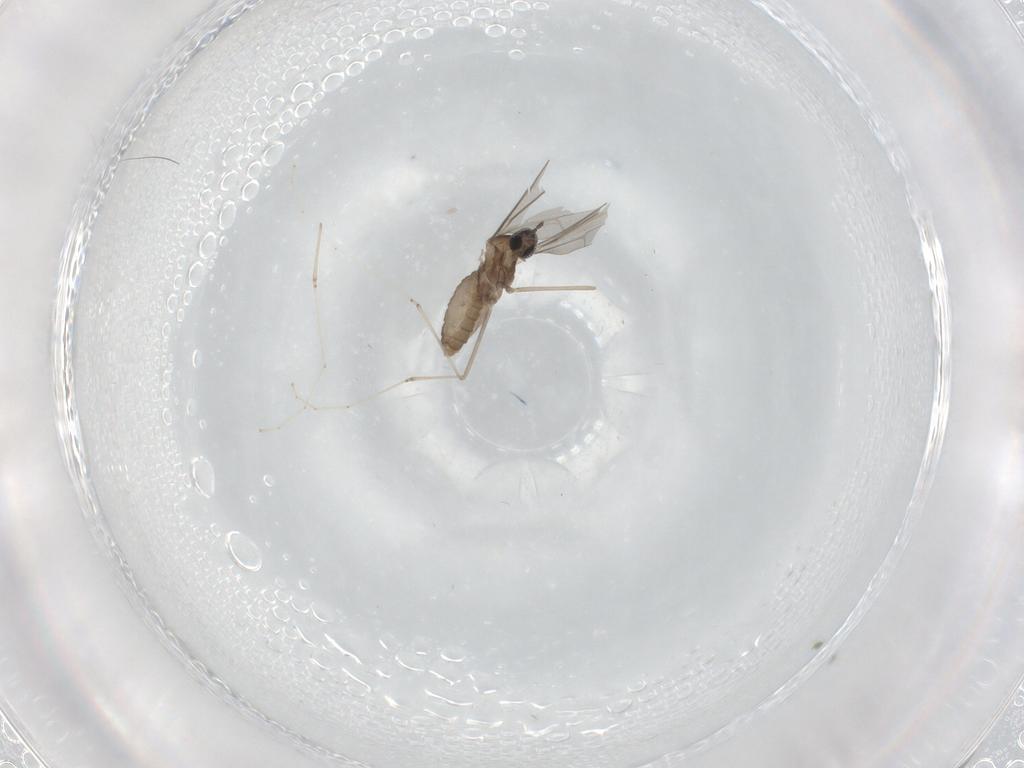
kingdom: Animalia
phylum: Arthropoda
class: Insecta
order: Diptera
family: Cecidomyiidae
